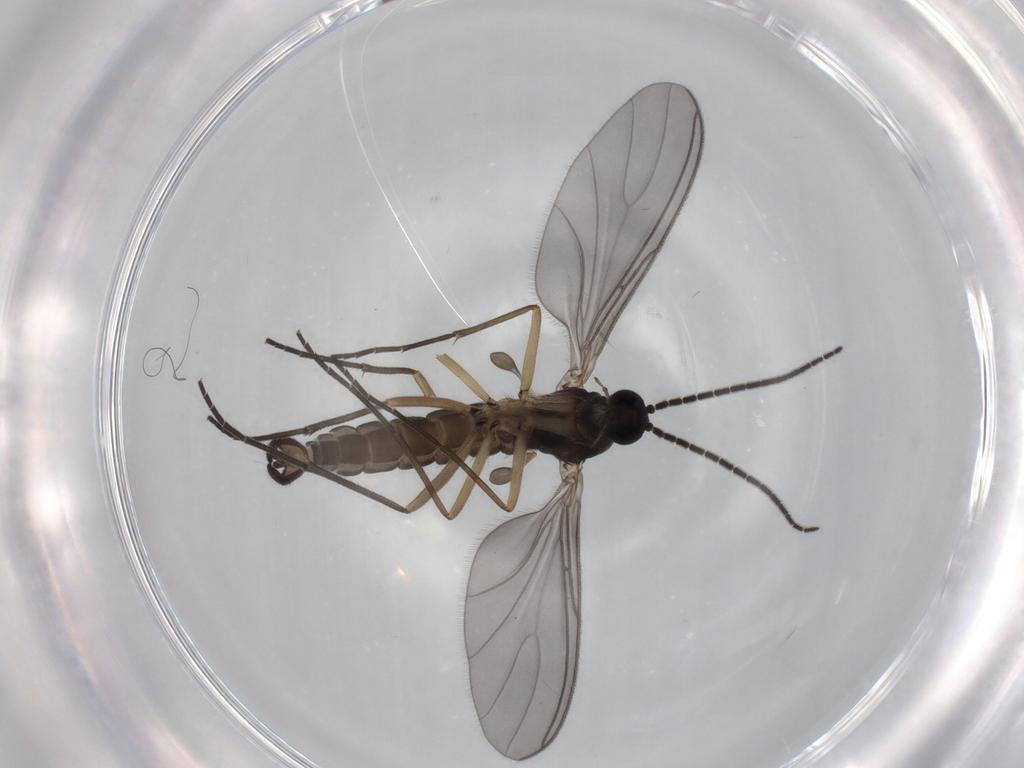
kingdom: Animalia
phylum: Arthropoda
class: Insecta
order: Diptera
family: Sciaridae
